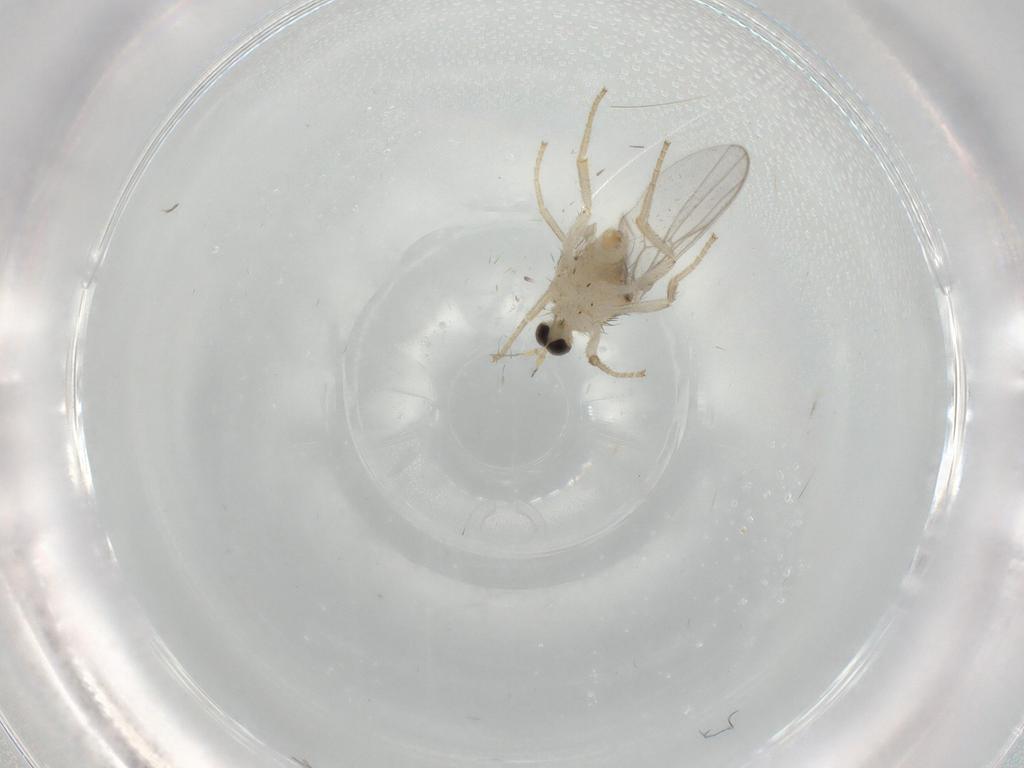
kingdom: Animalia
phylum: Arthropoda
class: Insecta
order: Diptera
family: Hybotidae
